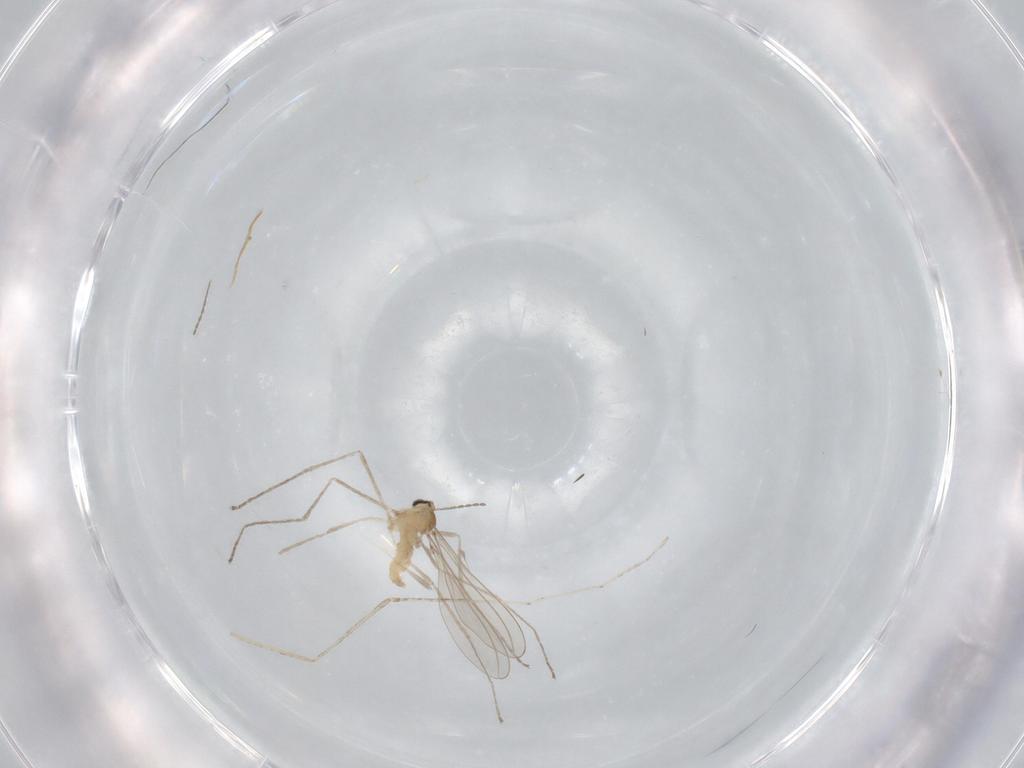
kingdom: Animalia
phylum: Arthropoda
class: Insecta
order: Diptera
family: Cecidomyiidae
